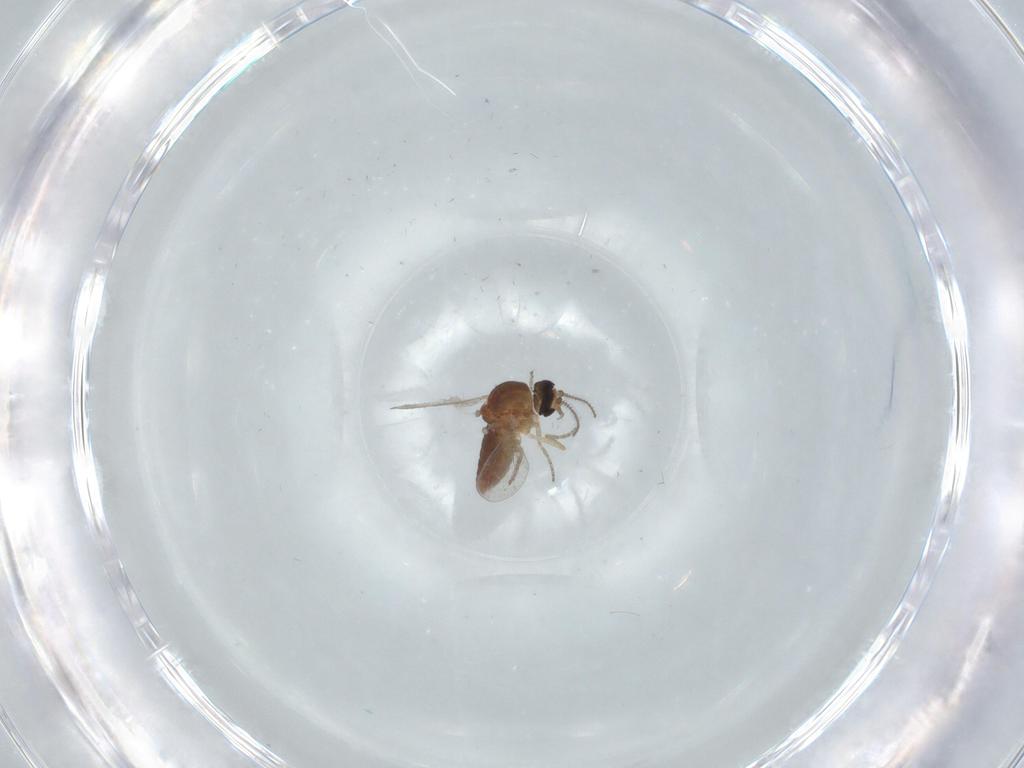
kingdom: Animalia
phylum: Arthropoda
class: Insecta
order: Diptera
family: Ceratopogonidae
